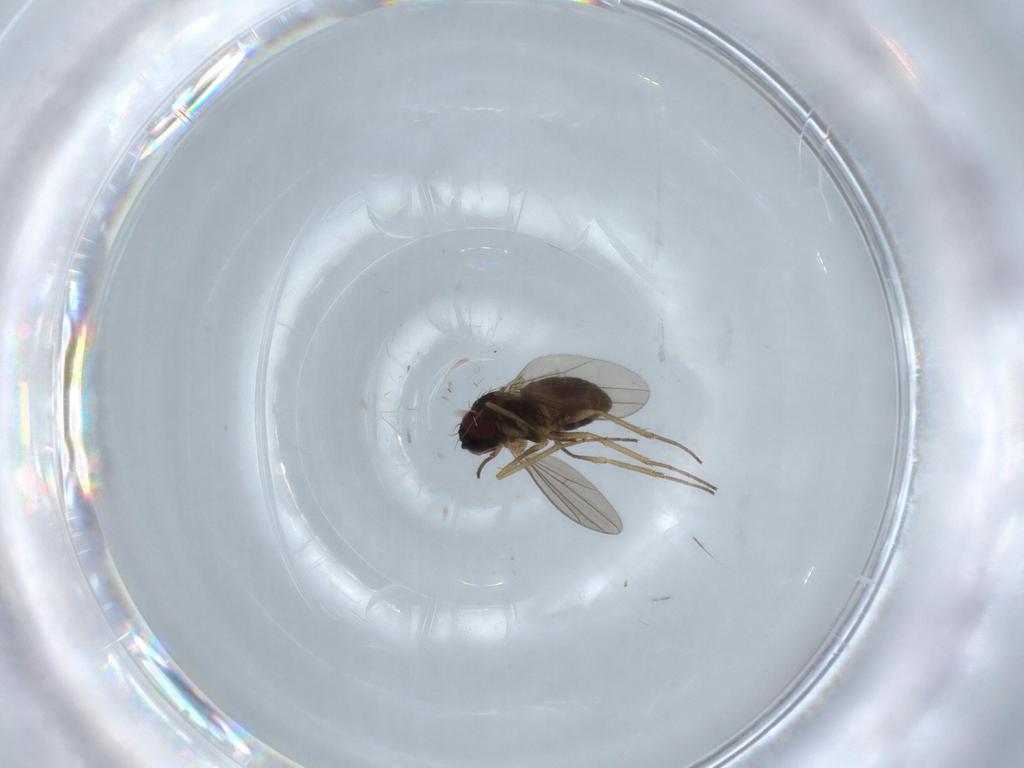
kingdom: Animalia
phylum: Arthropoda
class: Insecta
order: Diptera
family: Dolichopodidae
